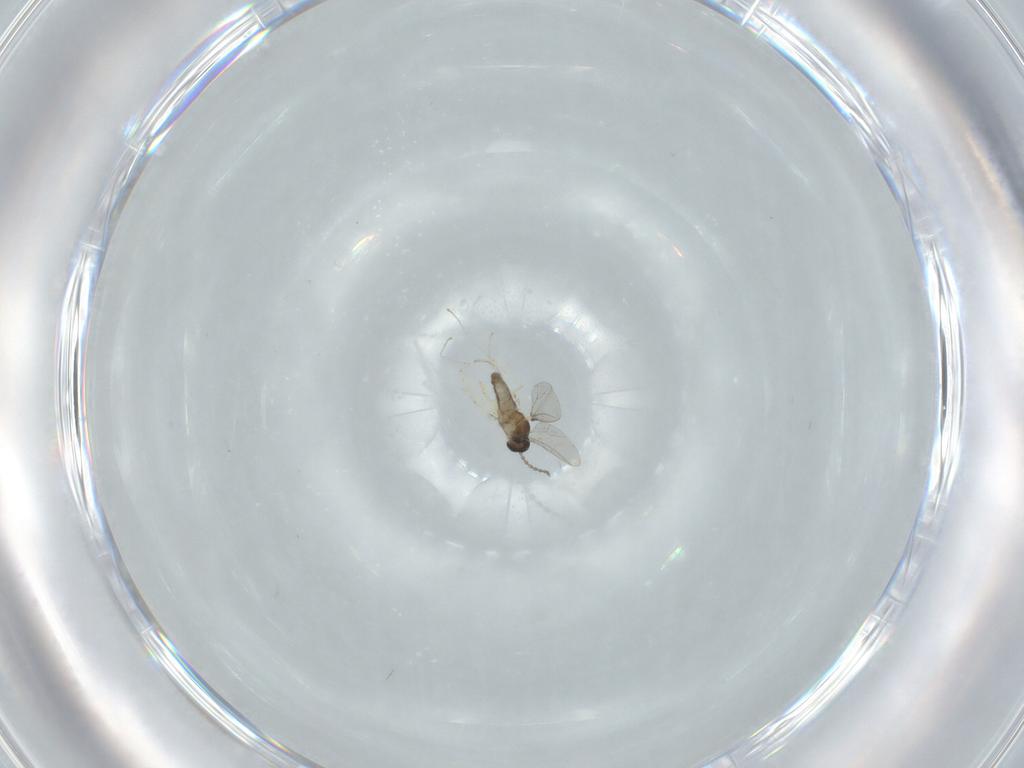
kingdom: Animalia
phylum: Arthropoda
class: Insecta
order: Diptera
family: Cecidomyiidae
